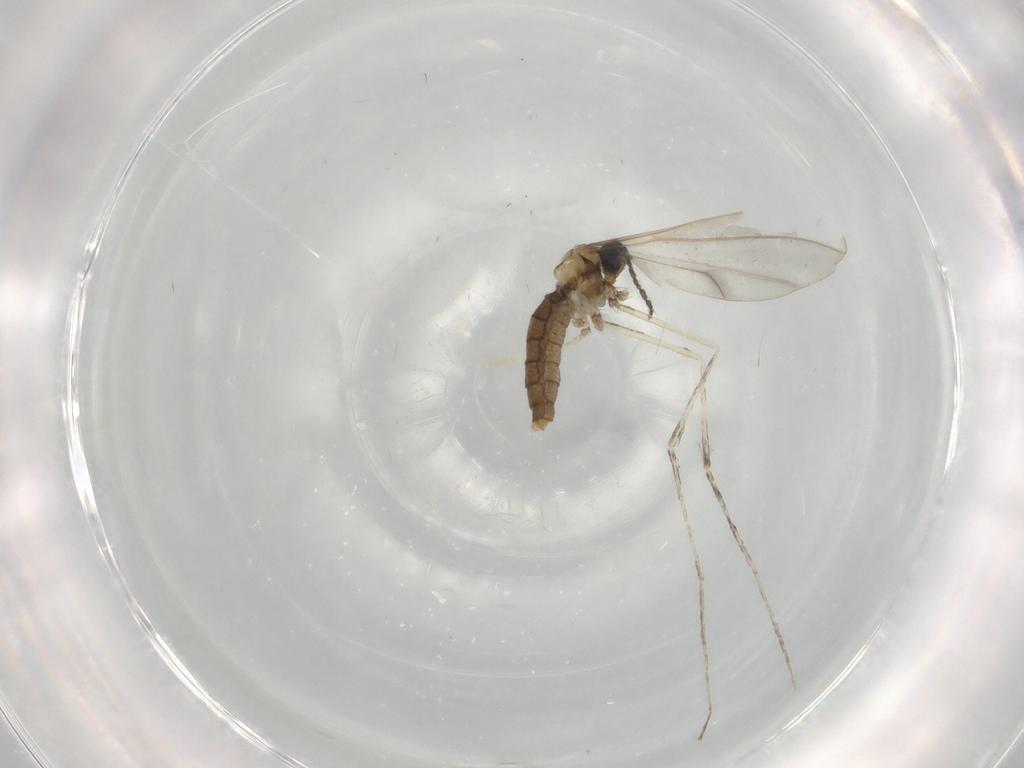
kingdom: Animalia
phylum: Arthropoda
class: Insecta
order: Diptera
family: Cecidomyiidae
